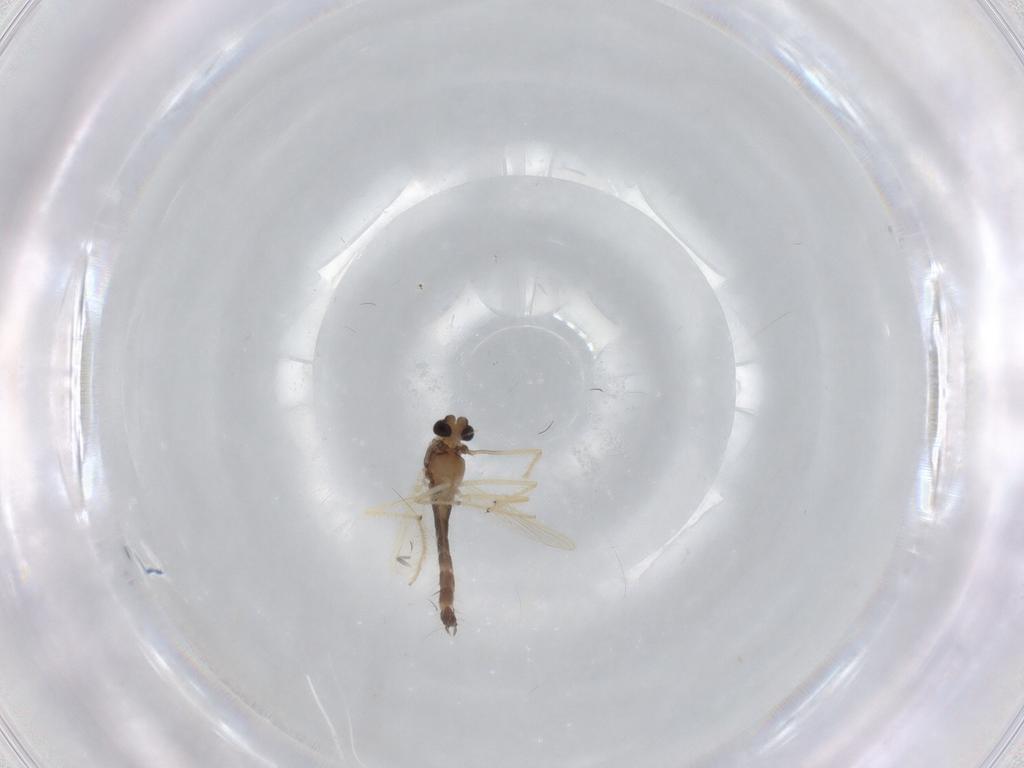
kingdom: Animalia
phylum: Arthropoda
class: Insecta
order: Diptera
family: Chironomidae
